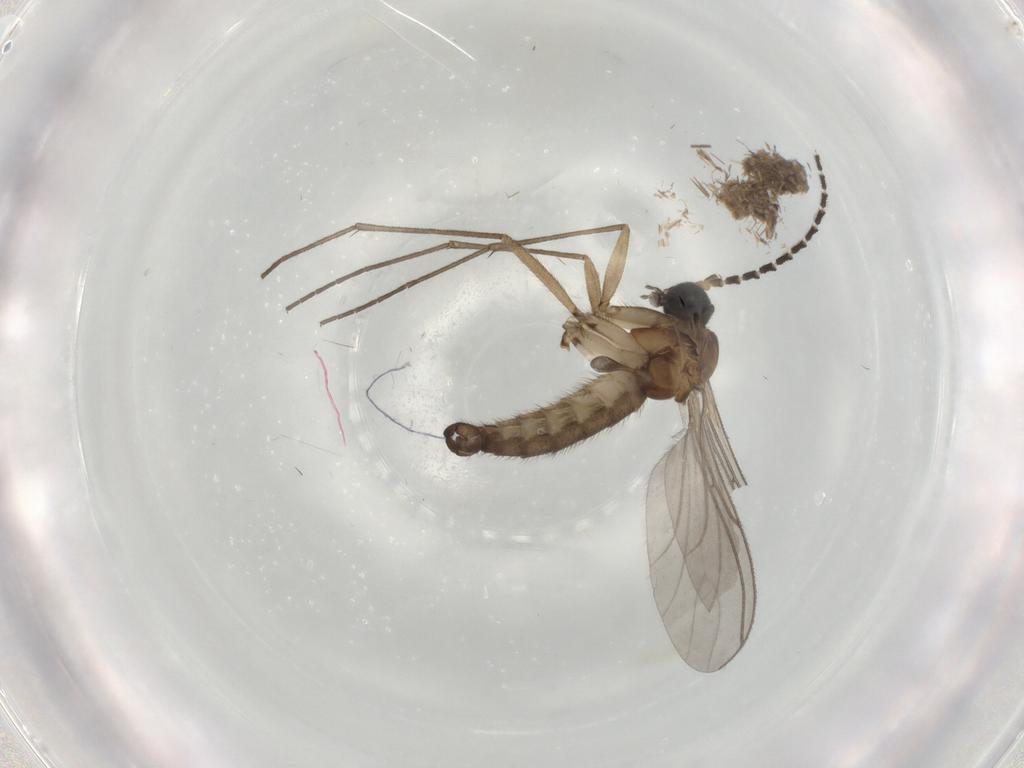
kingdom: Animalia
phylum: Arthropoda
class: Insecta
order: Diptera
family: Sciaridae
